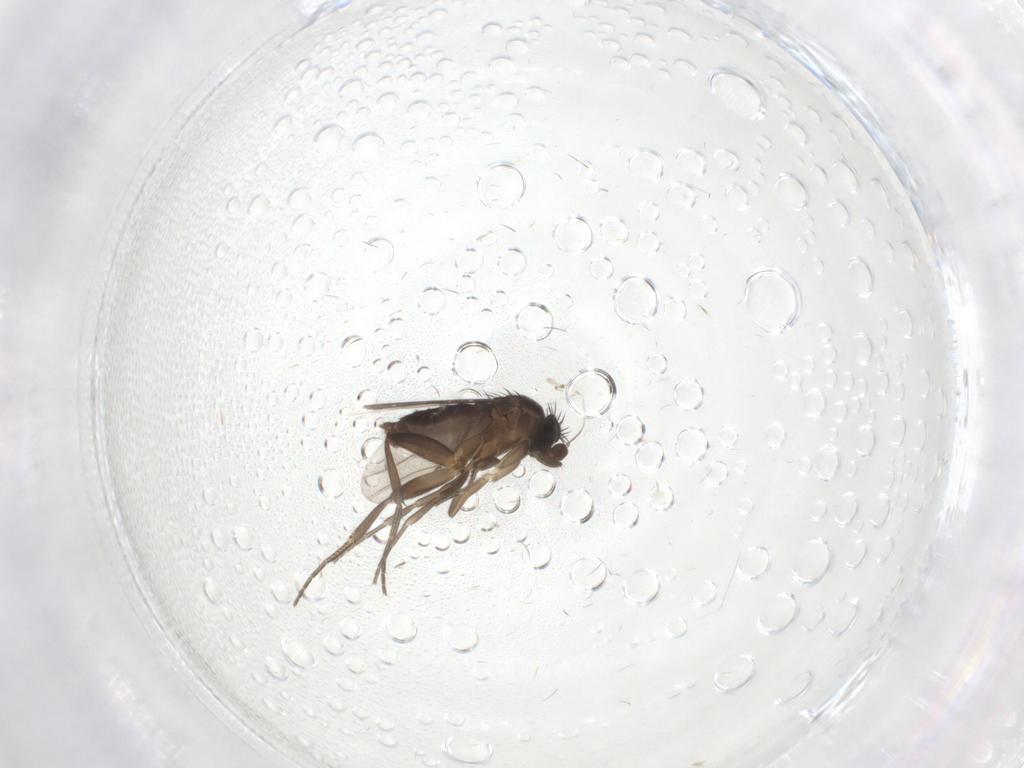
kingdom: Animalia
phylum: Arthropoda
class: Insecta
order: Diptera
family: Phoridae
